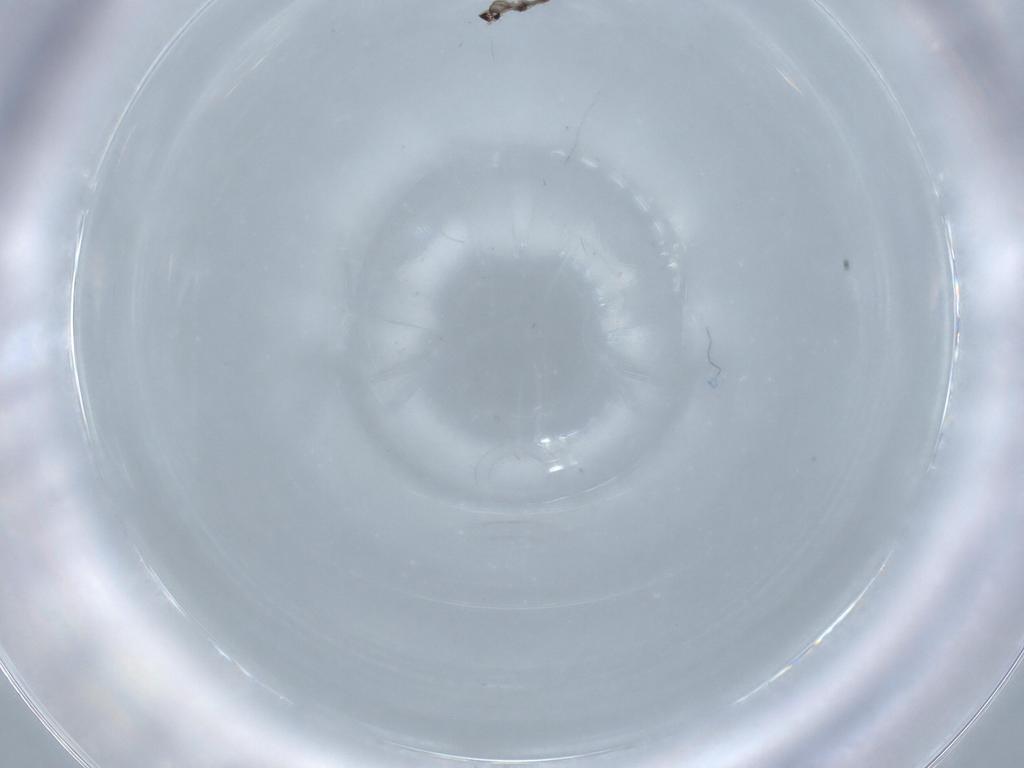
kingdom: Animalia
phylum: Arthropoda
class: Insecta
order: Diptera
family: Cecidomyiidae
